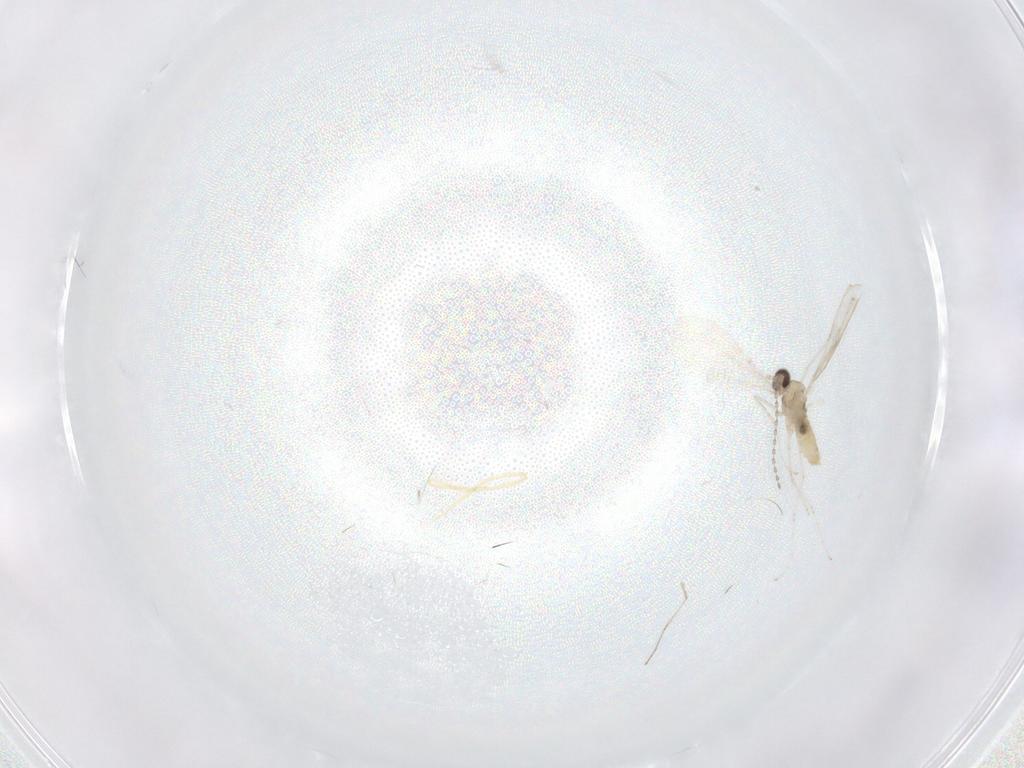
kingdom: Animalia
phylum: Arthropoda
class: Insecta
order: Diptera
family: Cecidomyiidae
